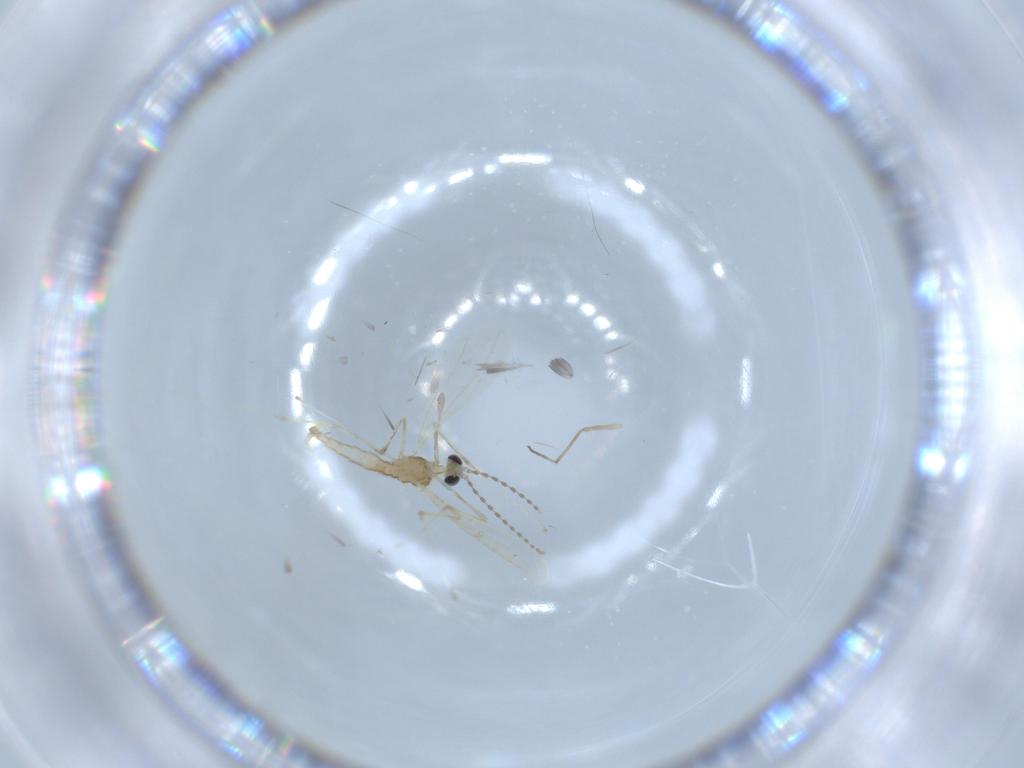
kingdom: Animalia
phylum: Arthropoda
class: Insecta
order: Diptera
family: Cecidomyiidae
